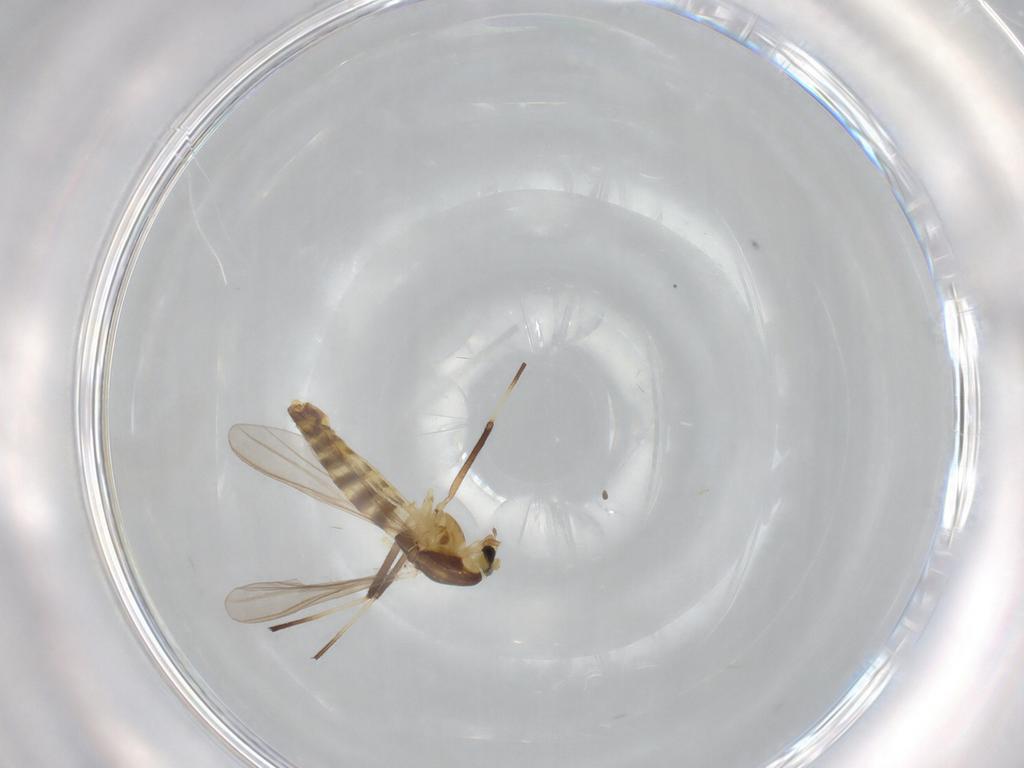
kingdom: Animalia
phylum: Arthropoda
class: Insecta
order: Diptera
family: Chironomidae
